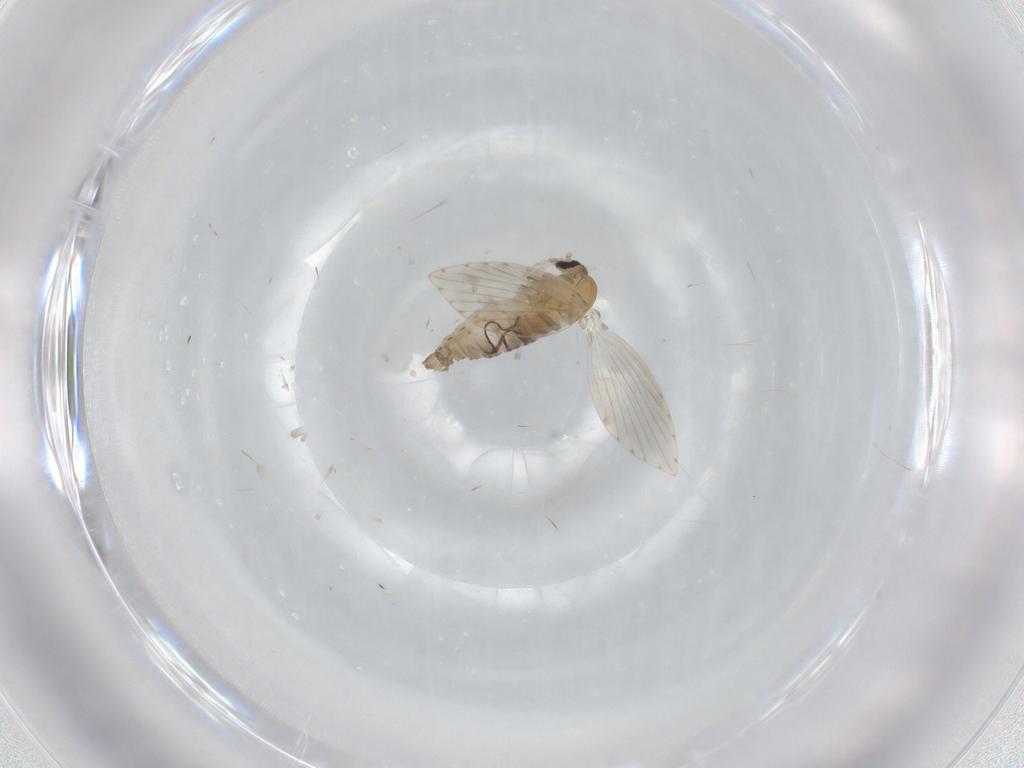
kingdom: Animalia
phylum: Arthropoda
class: Insecta
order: Diptera
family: Psychodidae
